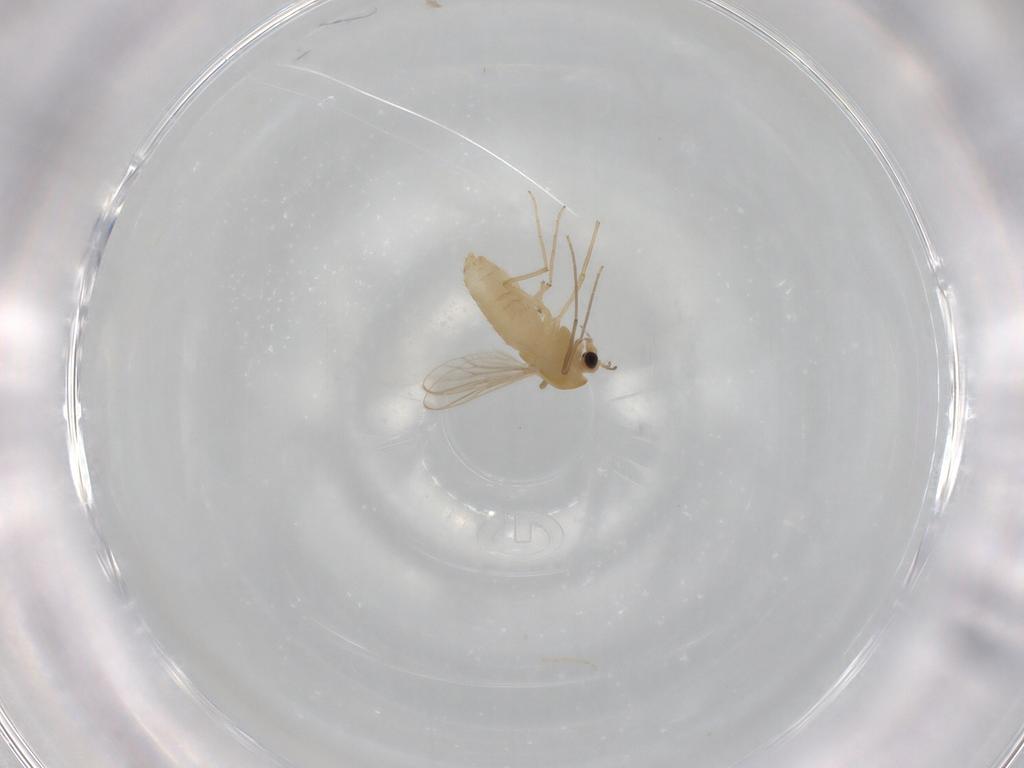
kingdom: Animalia
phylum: Arthropoda
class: Insecta
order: Diptera
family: Chironomidae
